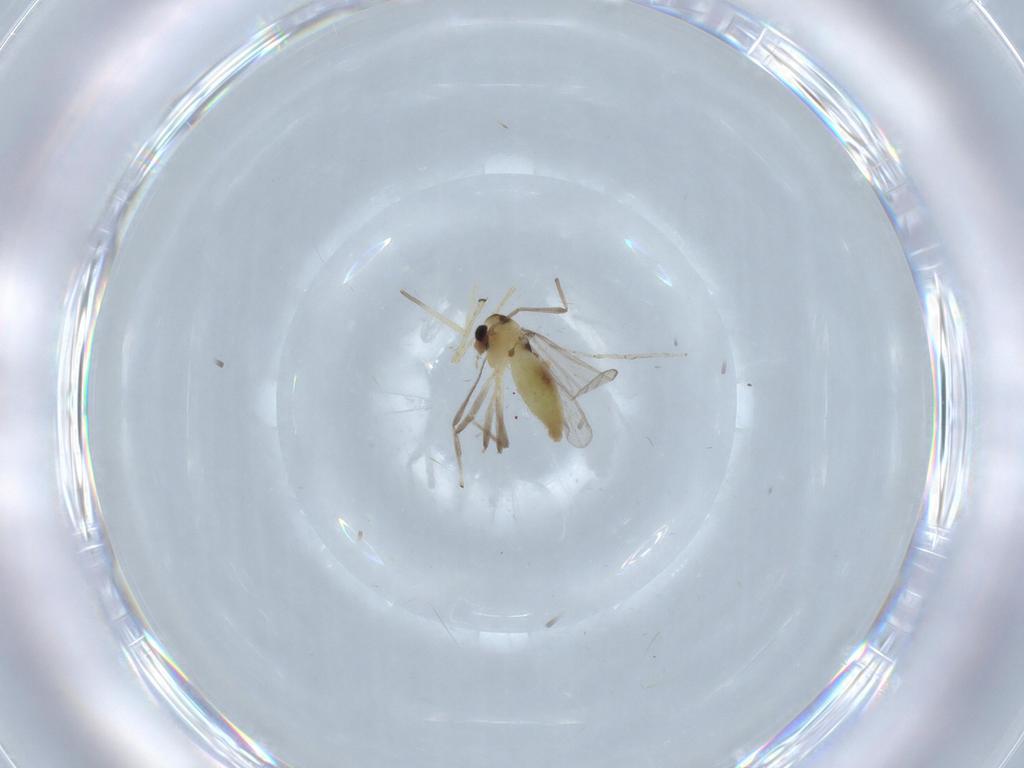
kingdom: Animalia
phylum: Arthropoda
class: Insecta
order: Diptera
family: Chironomidae
